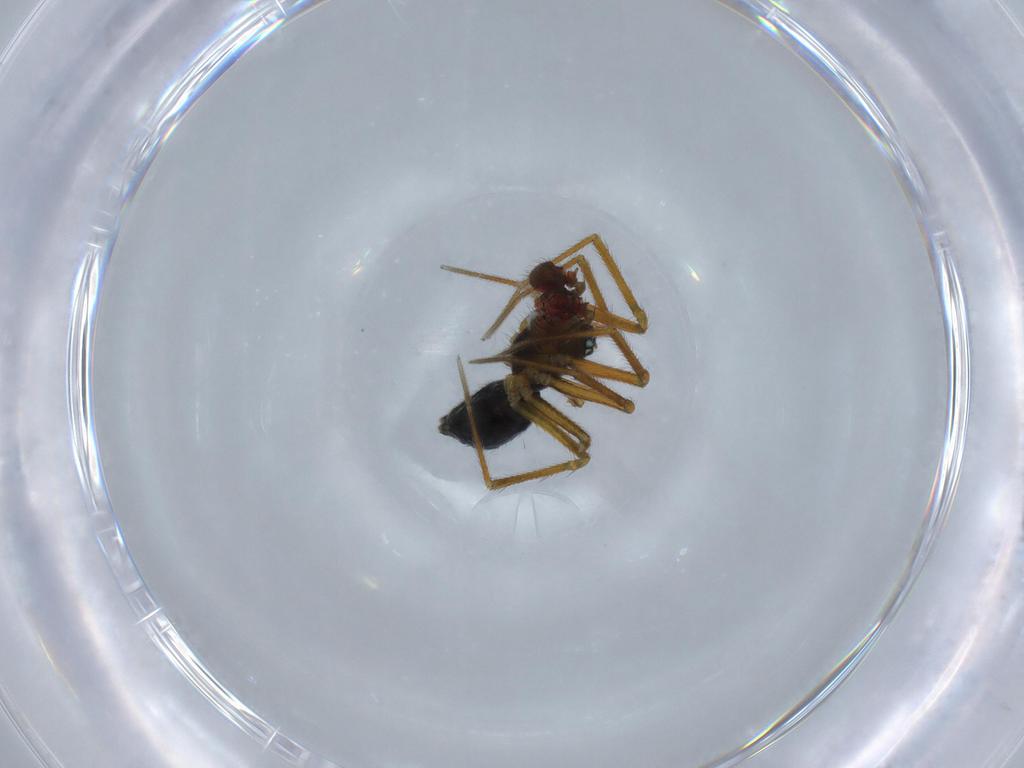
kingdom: Animalia
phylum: Arthropoda
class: Arachnida
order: Araneae
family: Linyphiidae
